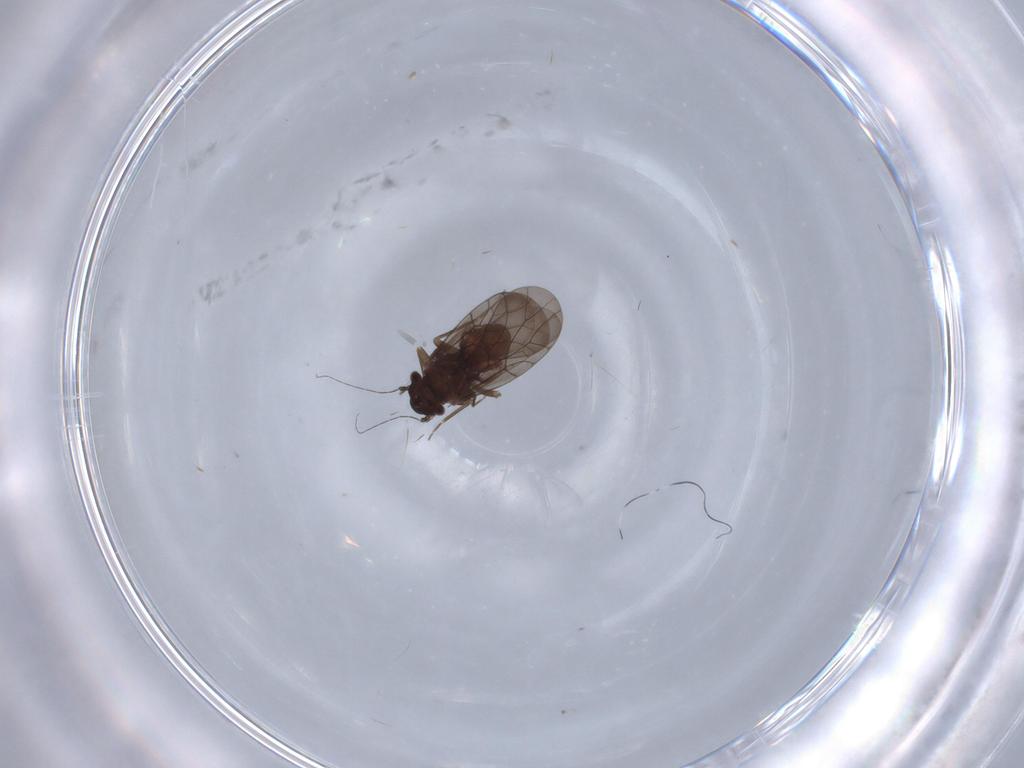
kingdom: Animalia
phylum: Arthropoda
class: Insecta
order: Psocodea
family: Lepidopsocidae
